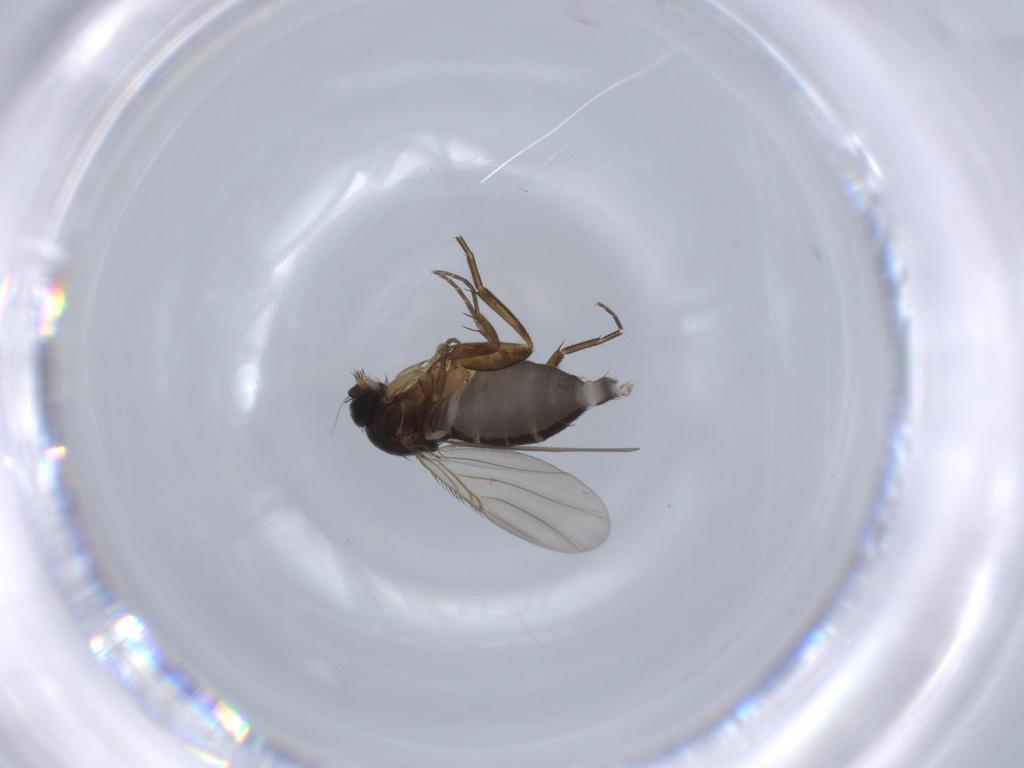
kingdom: Animalia
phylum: Arthropoda
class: Insecta
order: Diptera
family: Phoridae
